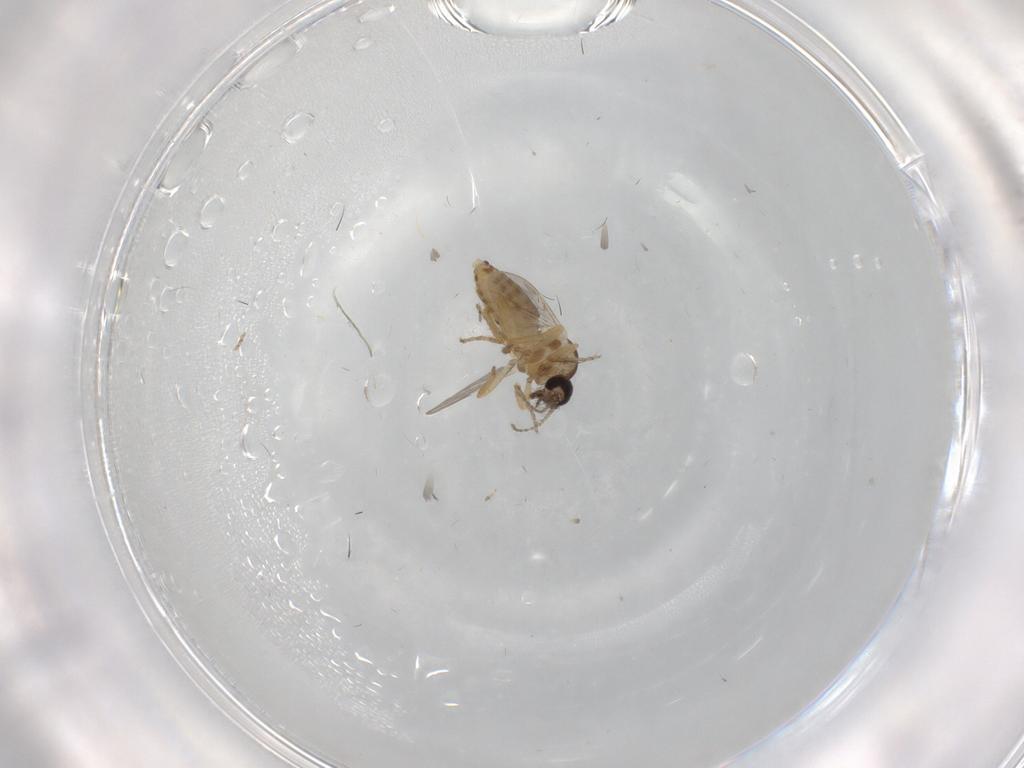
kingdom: Animalia
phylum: Arthropoda
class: Insecta
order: Diptera
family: Ceratopogonidae
